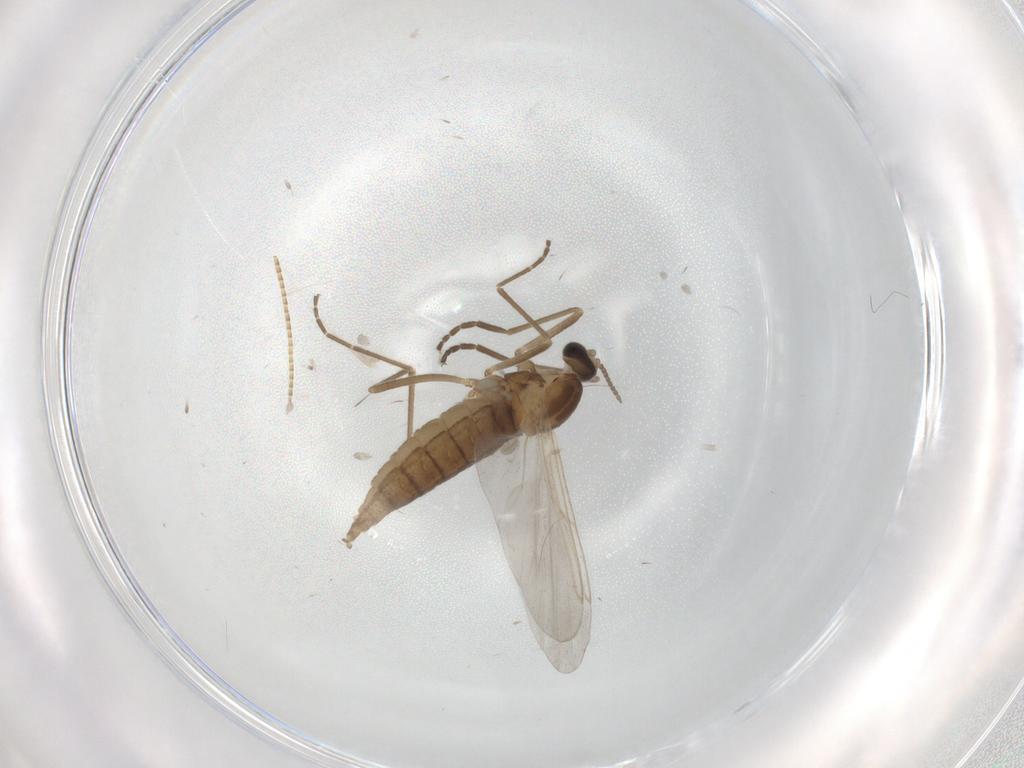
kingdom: Animalia
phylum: Arthropoda
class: Insecta
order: Diptera
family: Cecidomyiidae
